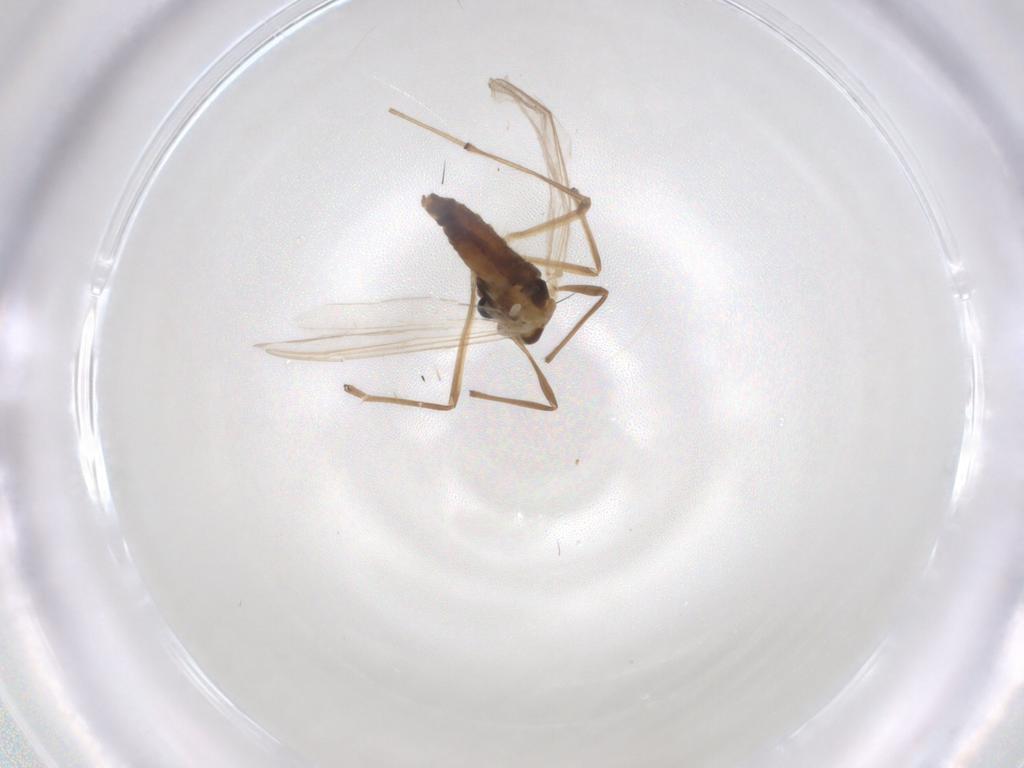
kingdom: Animalia
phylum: Arthropoda
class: Insecta
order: Diptera
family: Chironomidae
